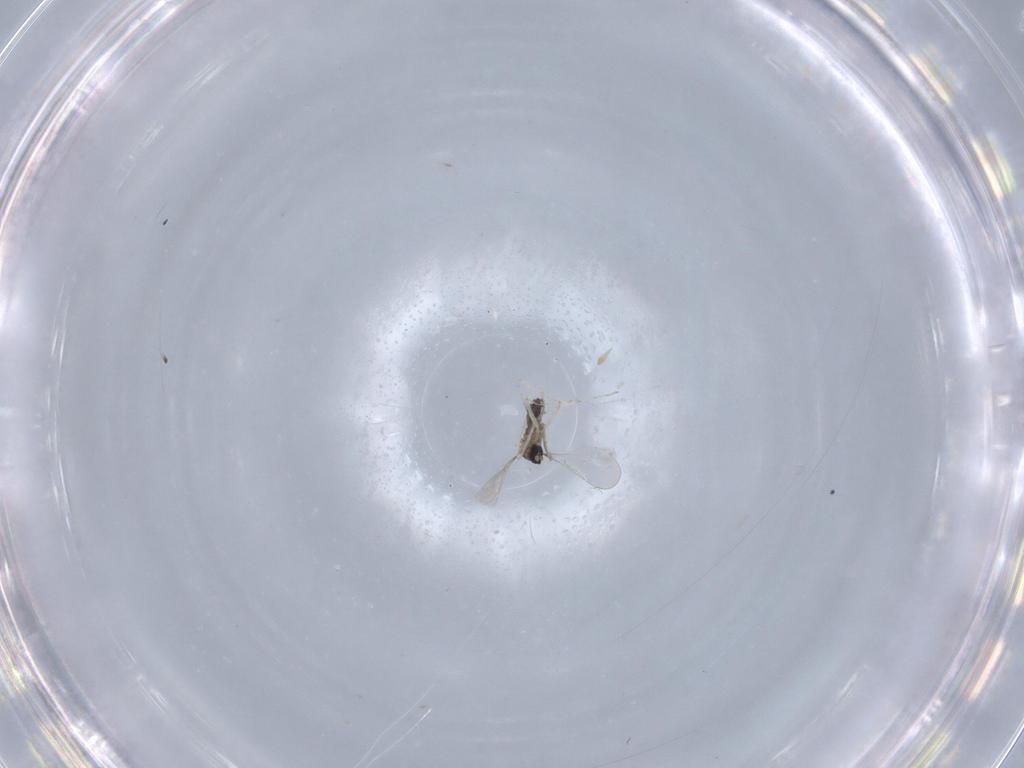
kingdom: Animalia
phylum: Arthropoda
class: Insecta
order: Diptera
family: Cecidomyiidae
